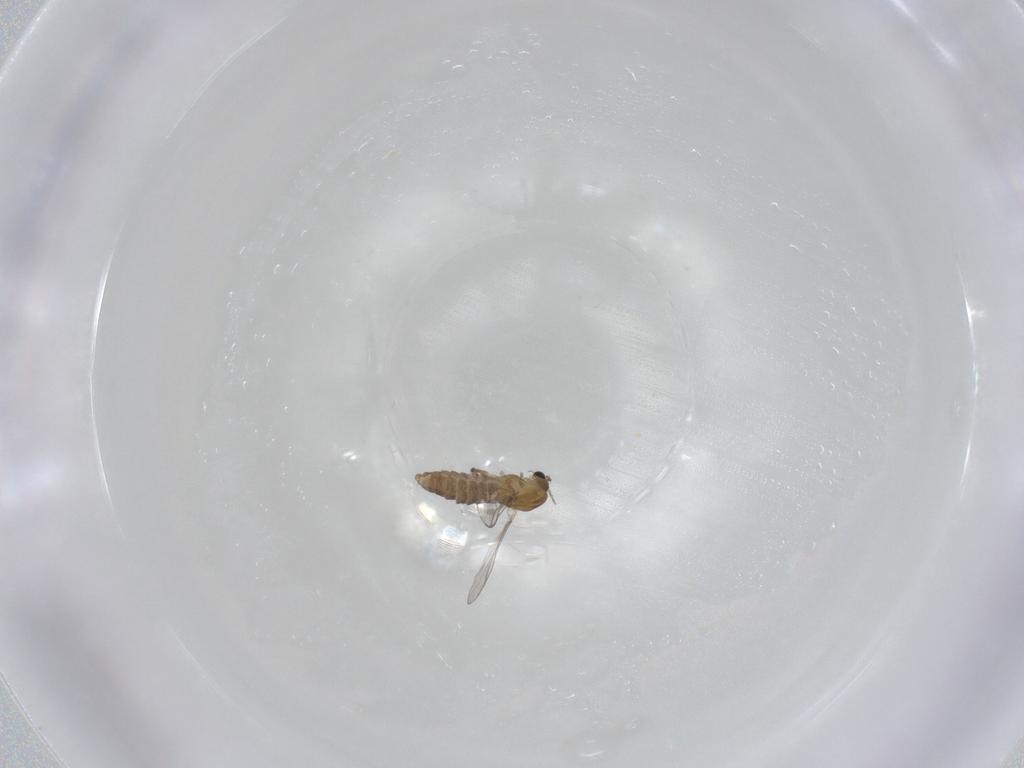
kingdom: Animalia
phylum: Arthropoda
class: Insecta
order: Diptera
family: Chironomidae
